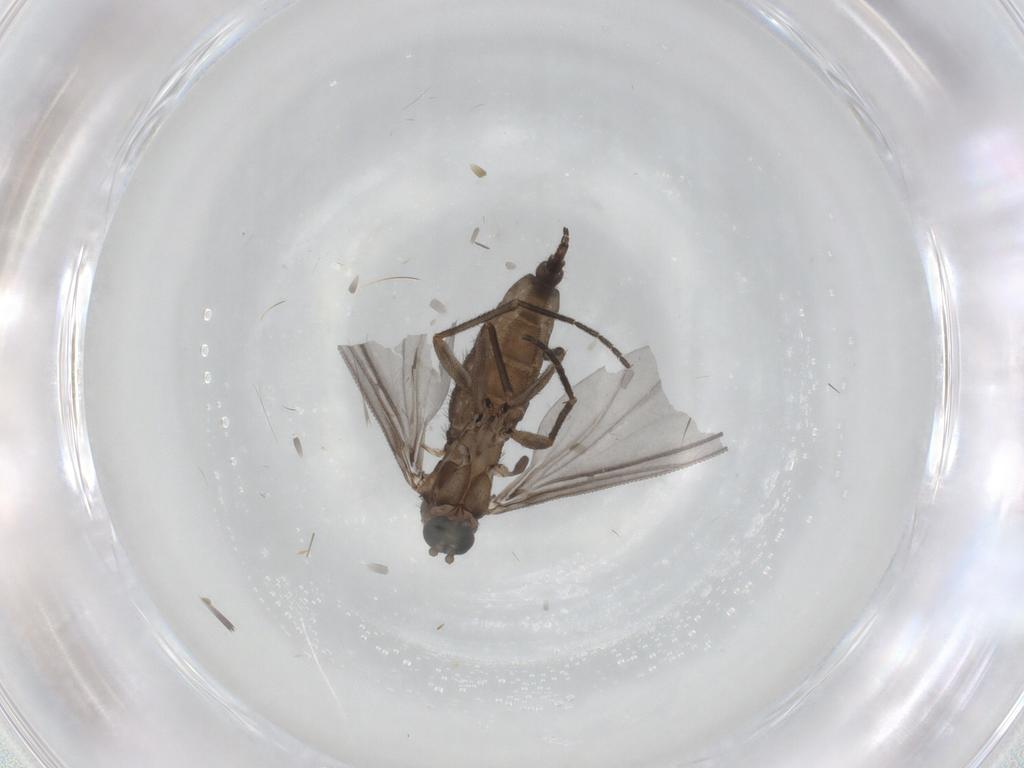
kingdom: Animalia
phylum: Arthropoda
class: Insecta
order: Diptera
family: Sciaridae
